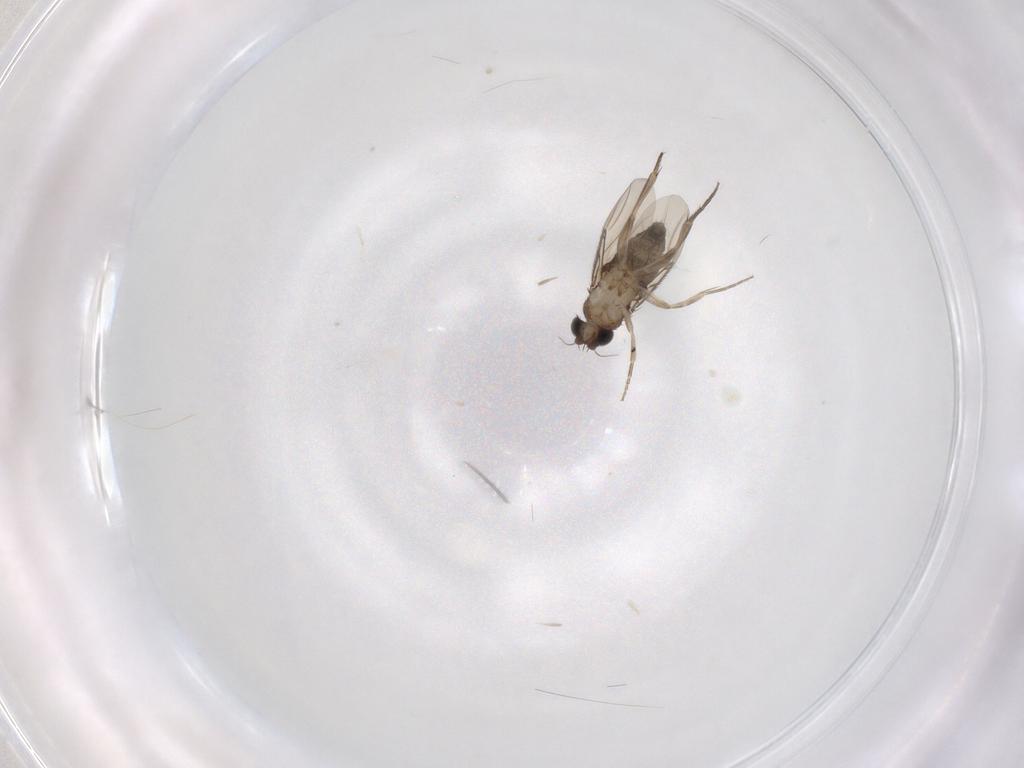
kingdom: Animalia
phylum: Arthropoda
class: Insecta
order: Diptera
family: Phoridae
